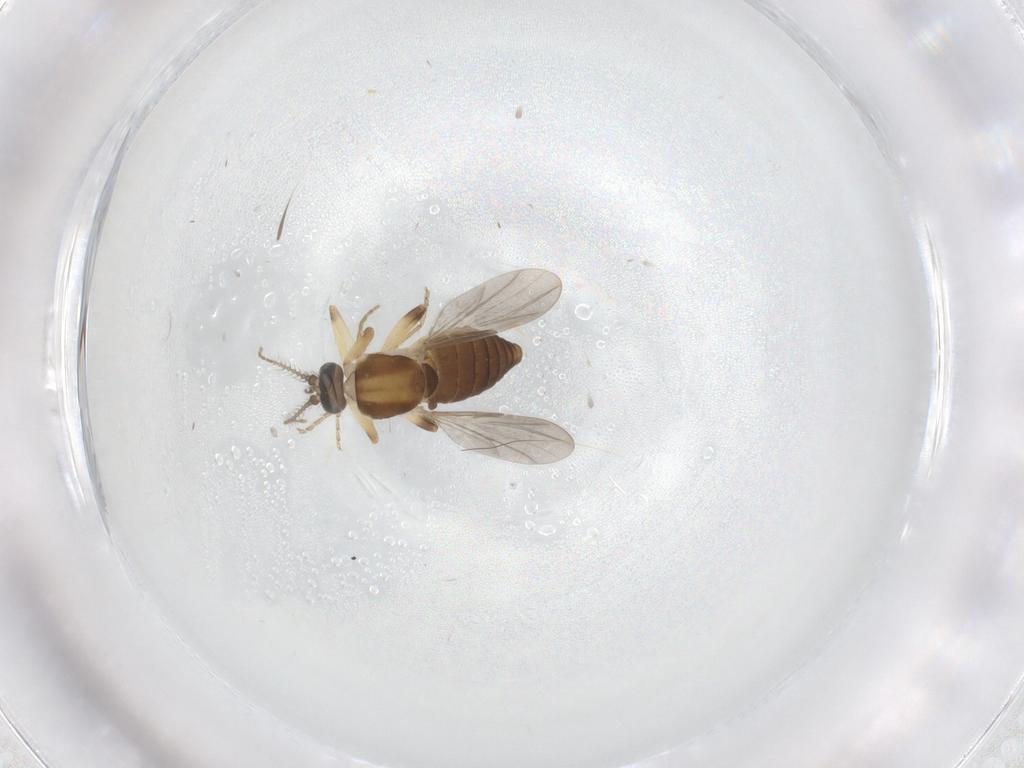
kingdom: Animalia
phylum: Arthropoda
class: Insecta
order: Diptera
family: Ceratopogonidae
